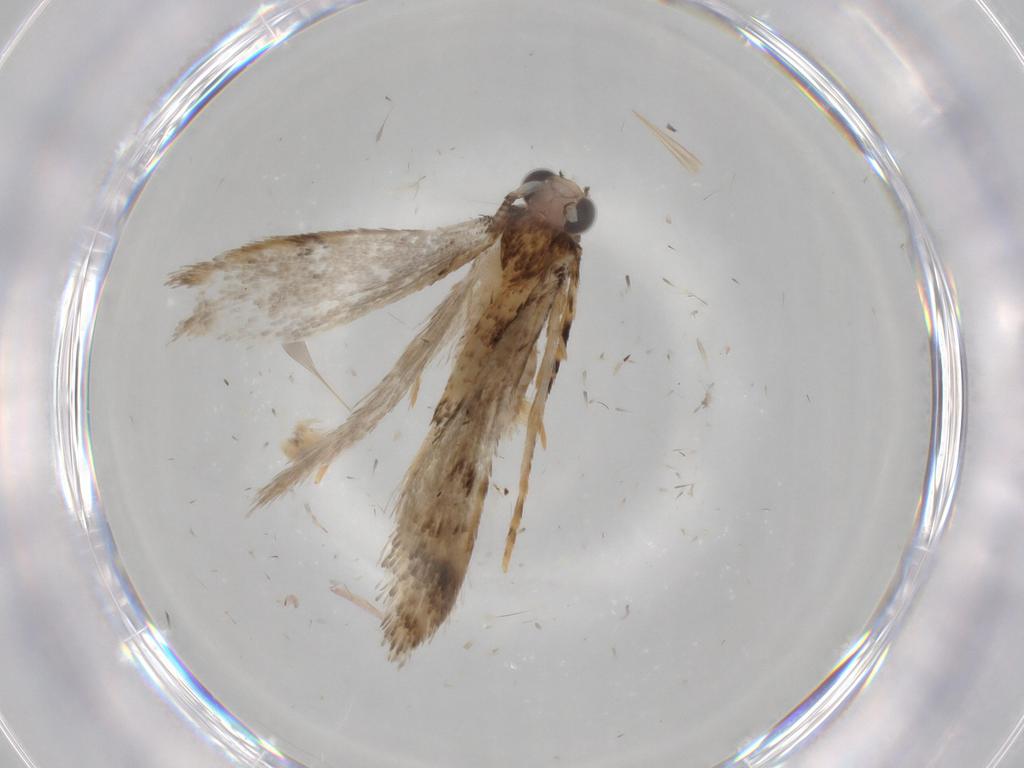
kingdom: Animalia
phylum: Arthropoda
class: Insecta
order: Lepidoptera
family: Tineidae
